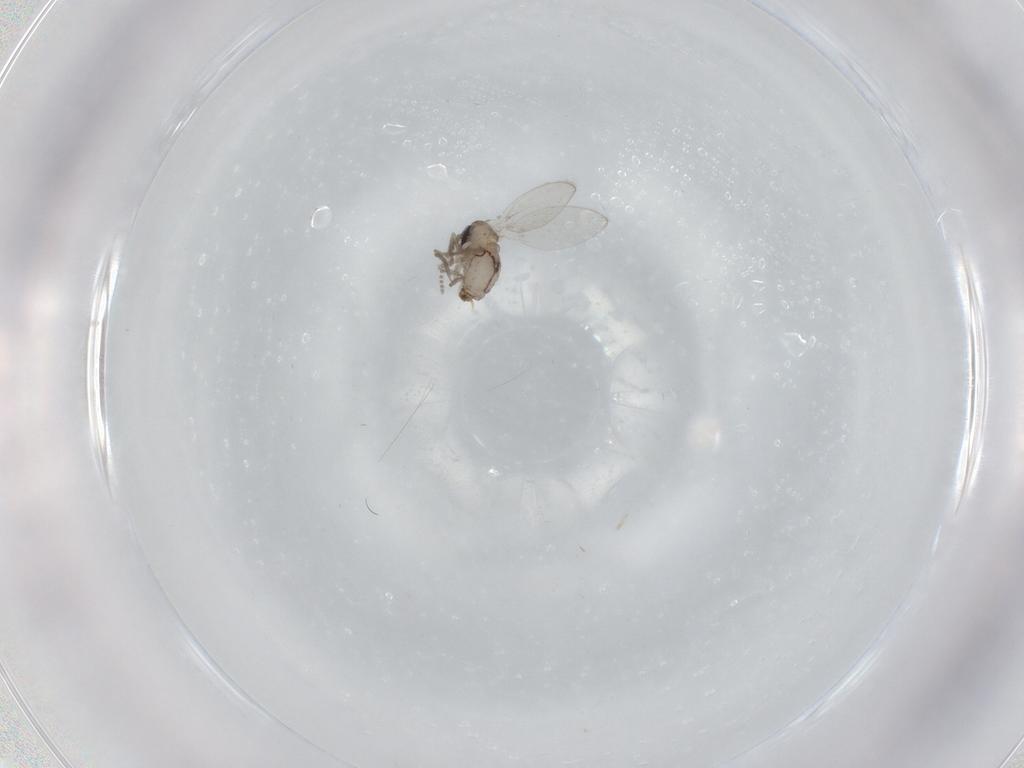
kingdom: Animalia
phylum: Arthropoda
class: Insecta
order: Diptera
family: Psychodidae
